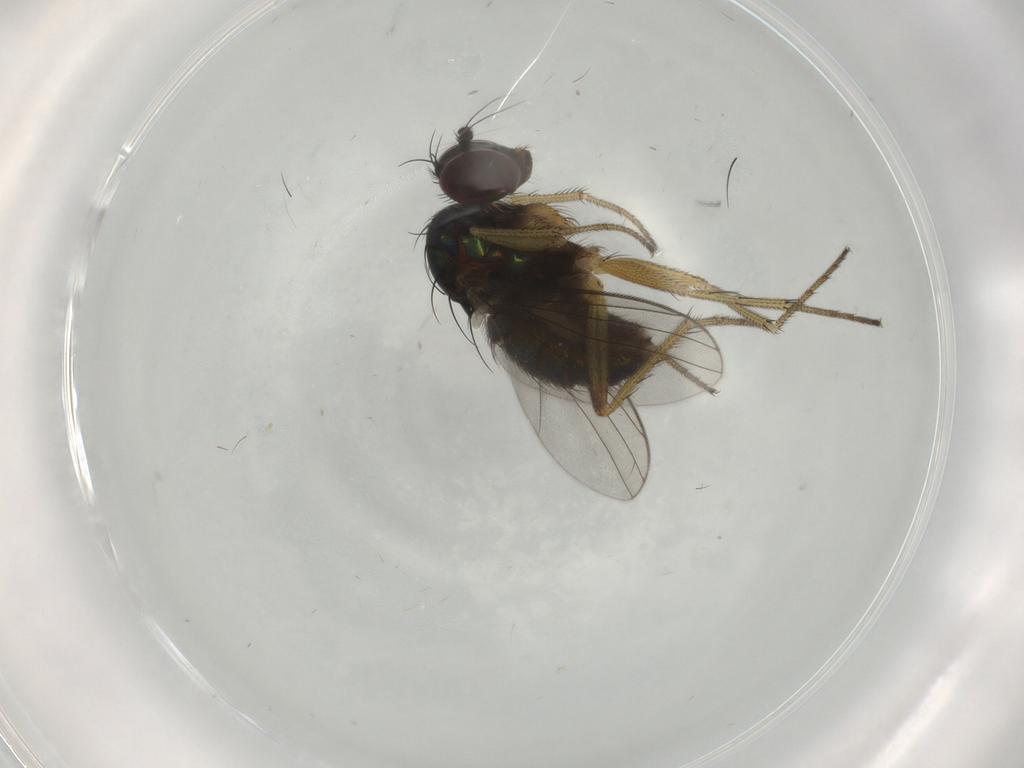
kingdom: Animalia
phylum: Arthropoda
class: Insecta
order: Diptera
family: Dolichopodidae
